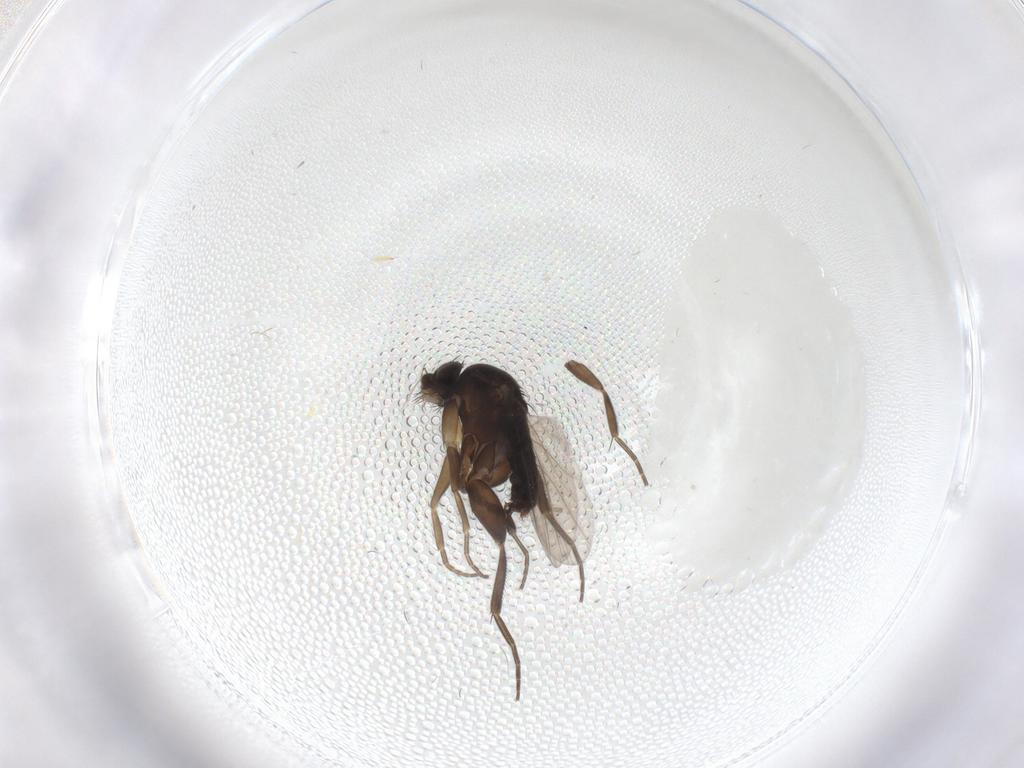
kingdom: Animalia
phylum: Arthropoda
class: Insecta
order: Diptera
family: Phoridae
